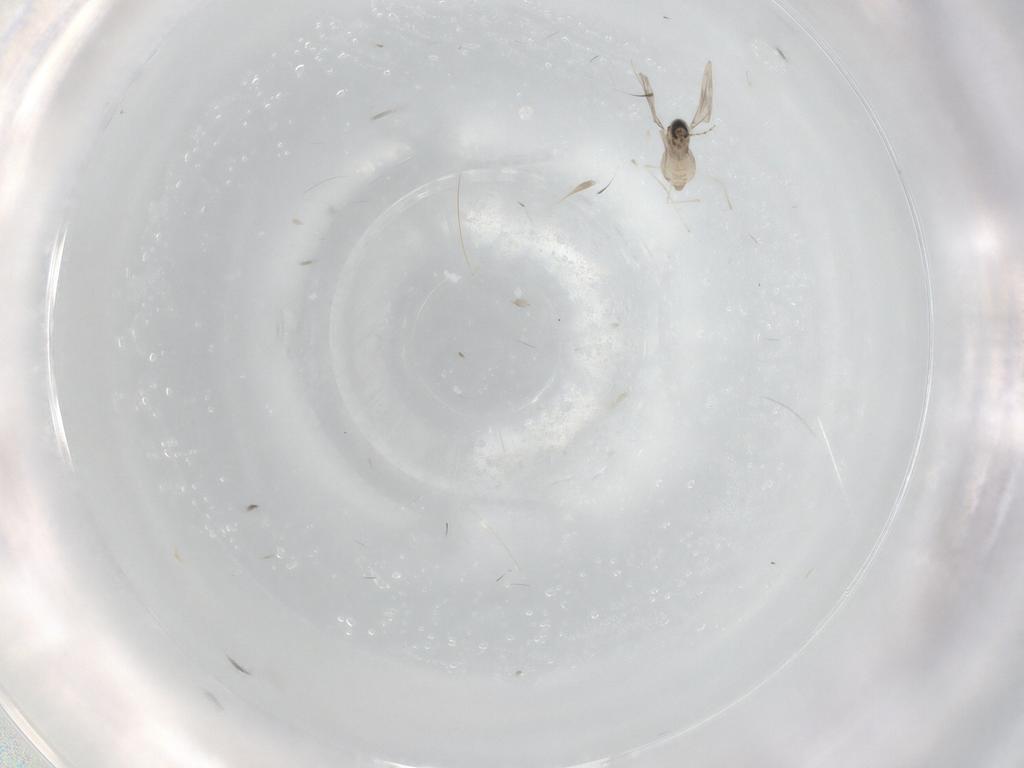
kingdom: Animalia
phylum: Arthropoda
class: Insecta
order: Diptera
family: Cecidomyiidae
